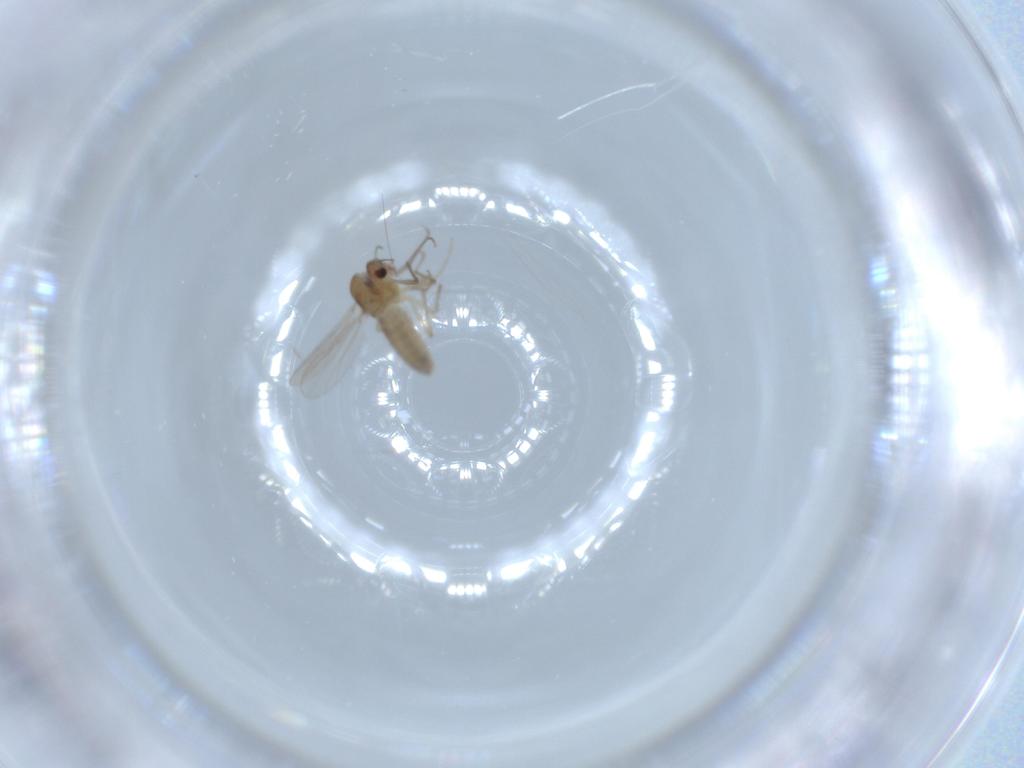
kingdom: Animalia
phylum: Arthropoda
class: Insecta
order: Diptera
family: Chironomidae
